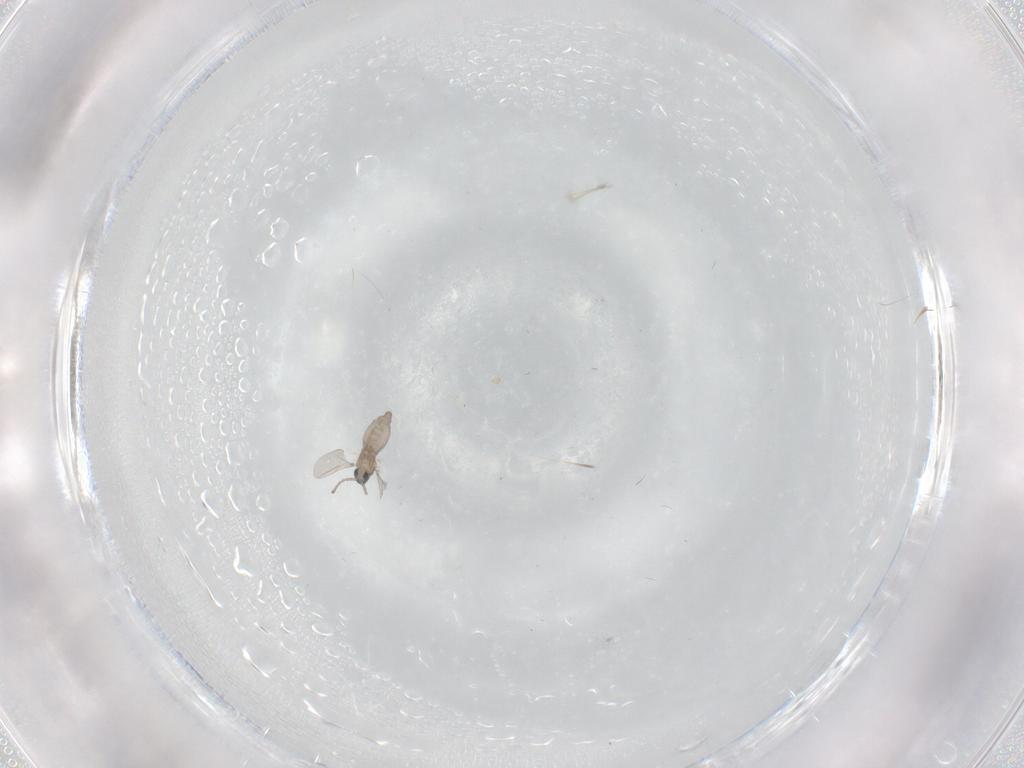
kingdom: Animalia
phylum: Arthropoda
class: Insecta
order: Diptera
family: Cecidomyiidae
